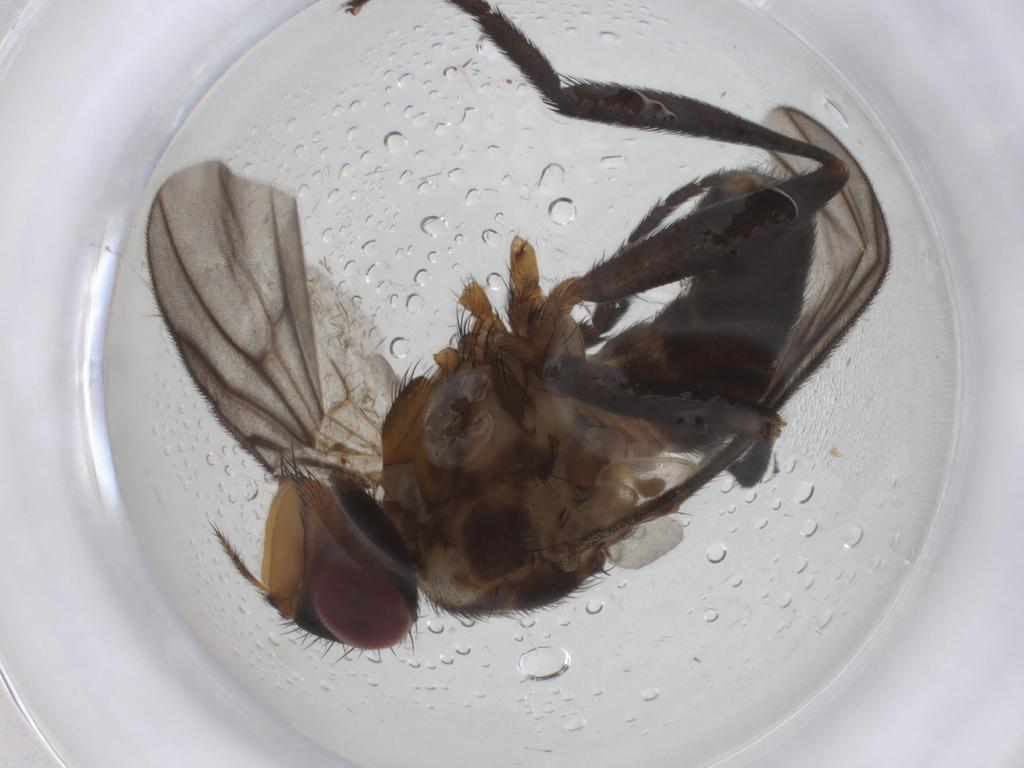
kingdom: Animalia
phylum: Arthropoda
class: Insecta
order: Diptera
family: Calliphoridae
